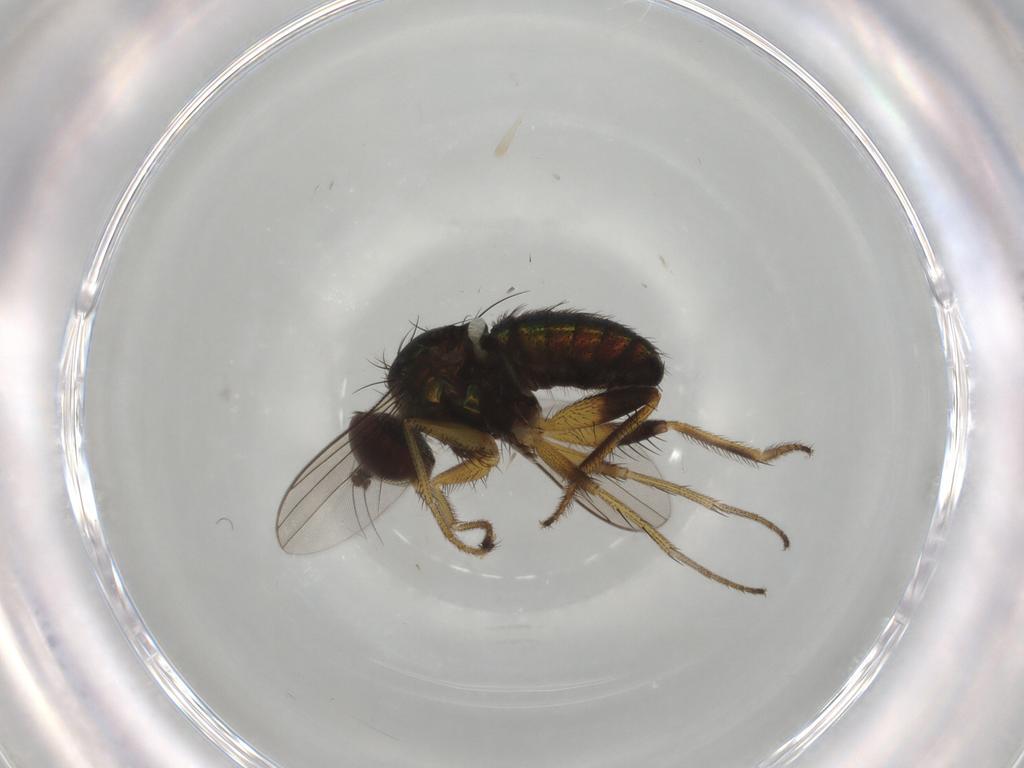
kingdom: Animalia
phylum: Arthropoda
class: Insecta
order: Diptera
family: Dolichopodidae
